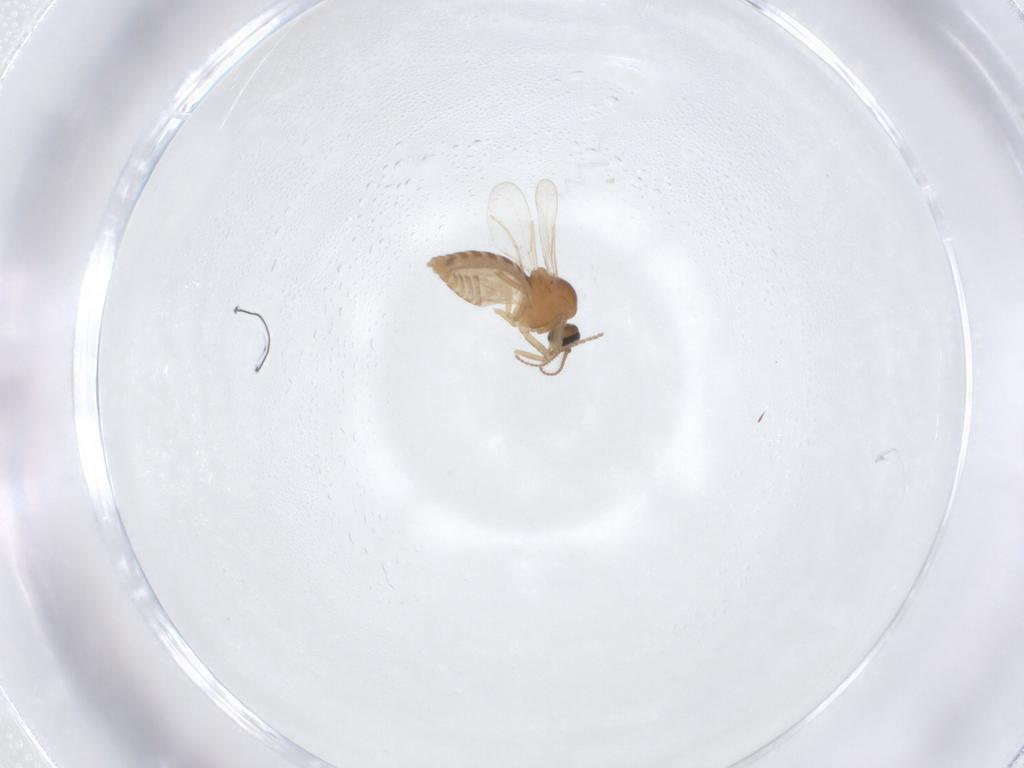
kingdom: Animalia
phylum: Arthropoda
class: Insecta
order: Diptera
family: Ceratopogonidae
